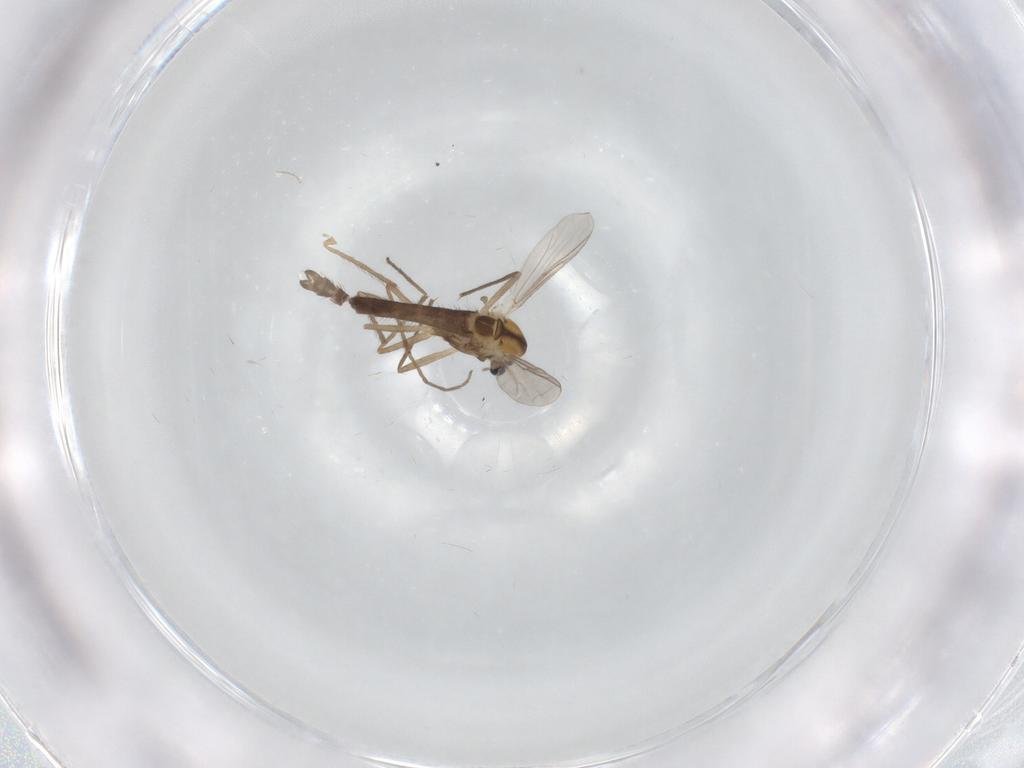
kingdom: Animalia
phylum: Arthropoda
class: Insecta
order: Diptera
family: Chironomidae
